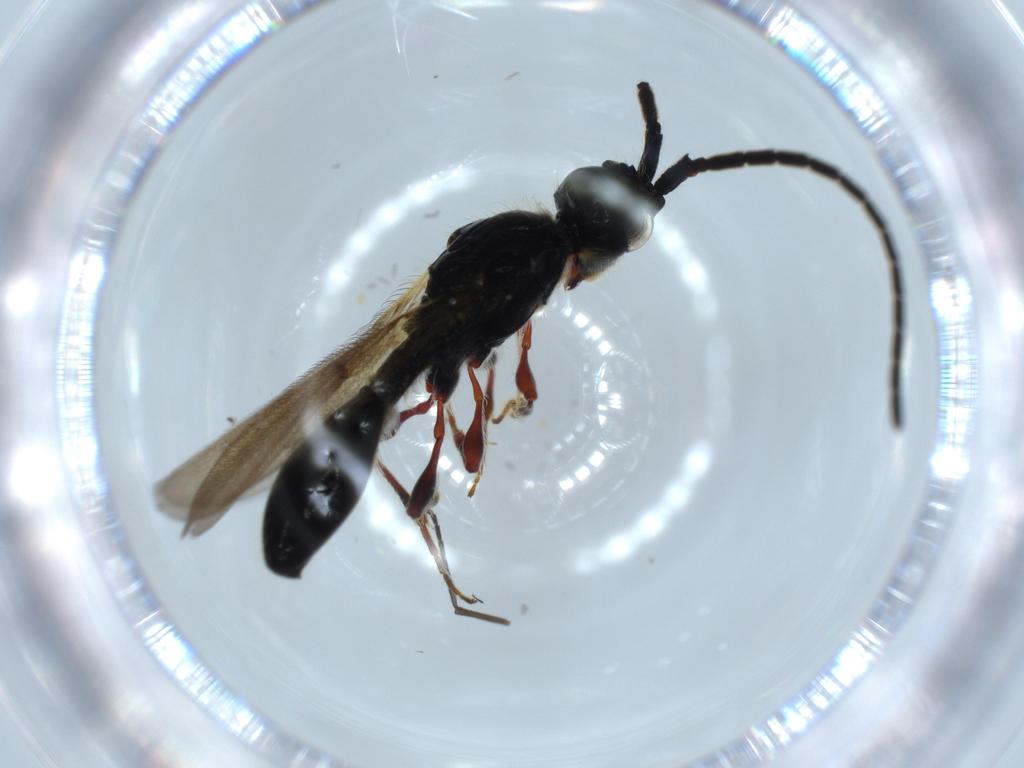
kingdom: Animalia
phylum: Arthropoda
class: Insecta
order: Hymenoptera
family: Diapriidae
